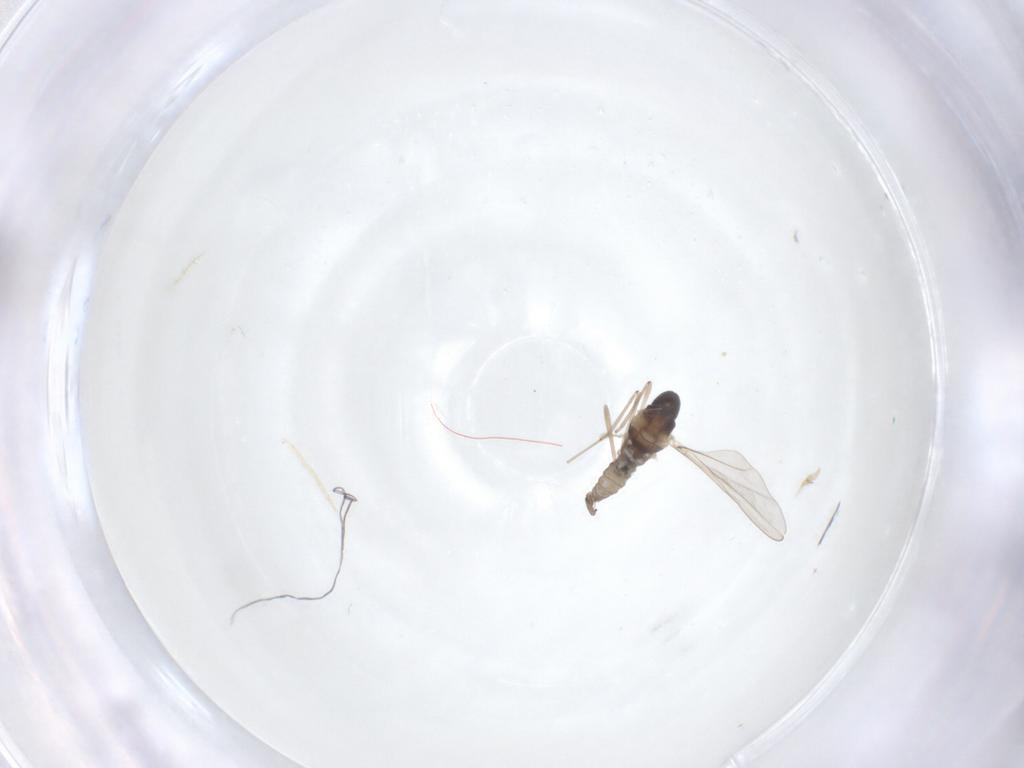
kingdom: Animalia
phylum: Arthropoda
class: Insecta
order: Diptera
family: Cecidomyiidae
